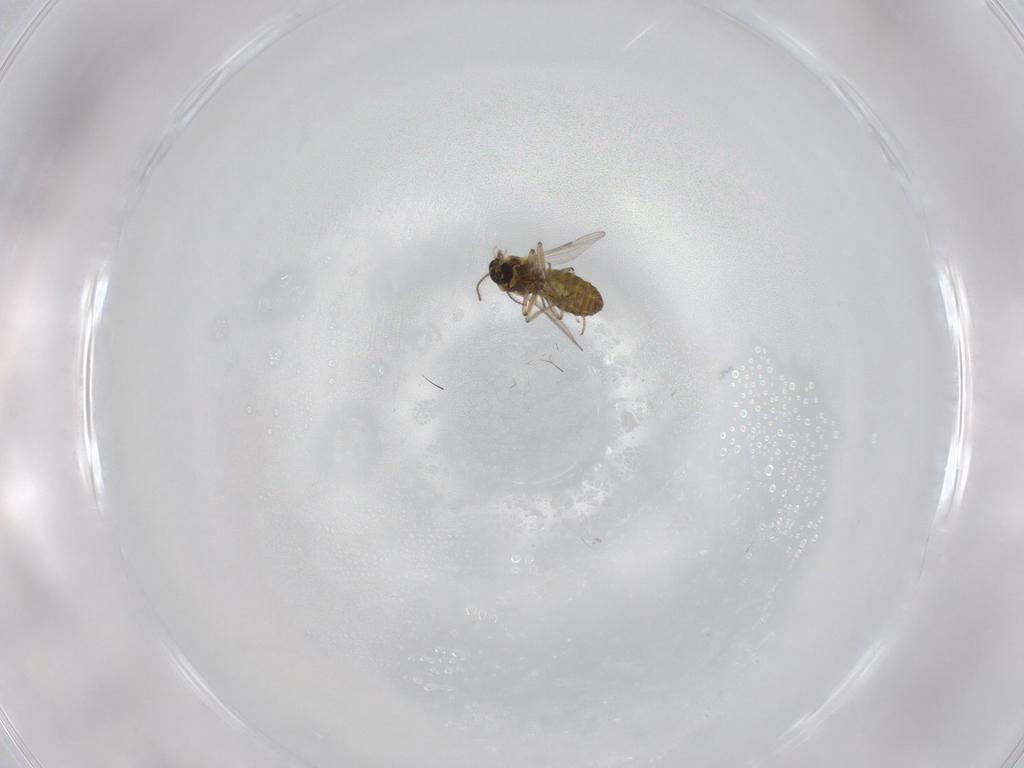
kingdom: Animalia
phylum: Arthropoda
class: Insecta
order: Diptera
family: Ceratopogonidae
